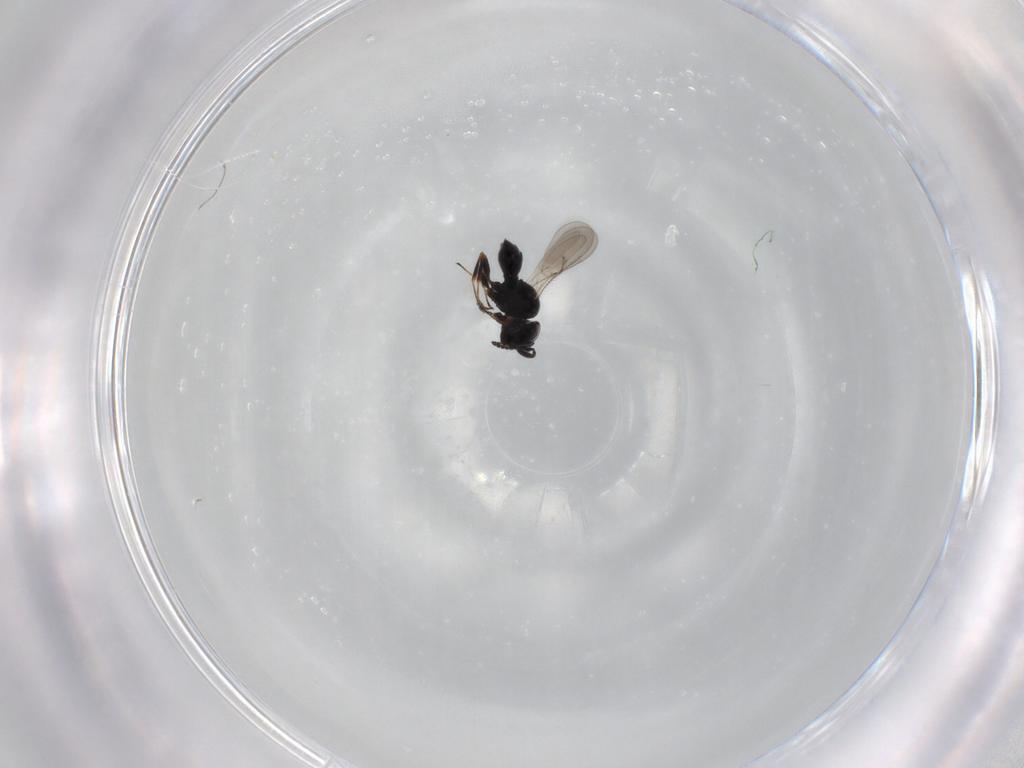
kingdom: Animalia
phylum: Arthropoda
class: Insecta
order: Hymenoptera
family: Scelionidae
